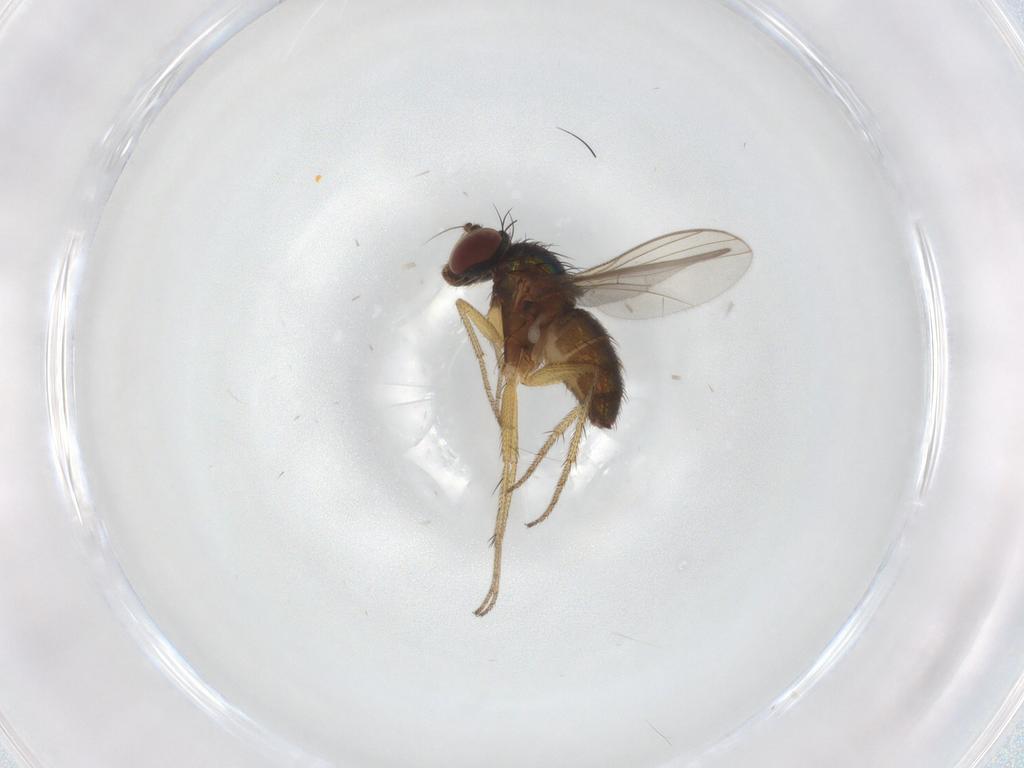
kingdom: Animalia
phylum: Arthropoda
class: Insecta
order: Diptera
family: Dolichopodidae
